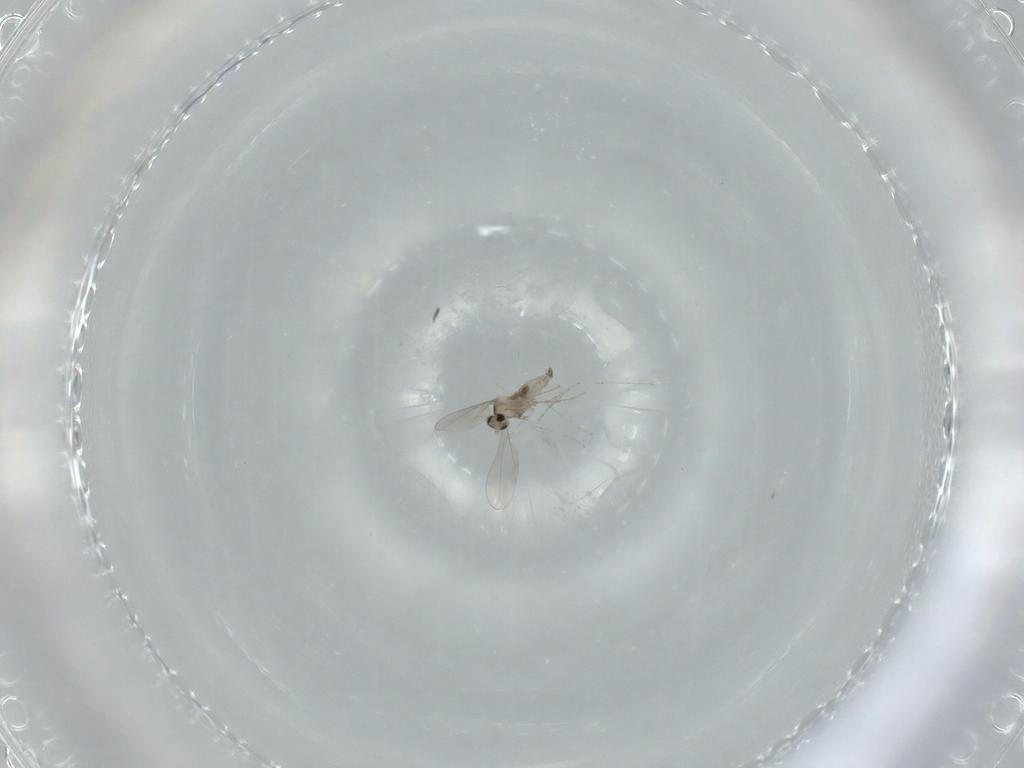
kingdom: Animalia
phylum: Arthropoda
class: Insecta
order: Diptera
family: Cecidomyiidae
